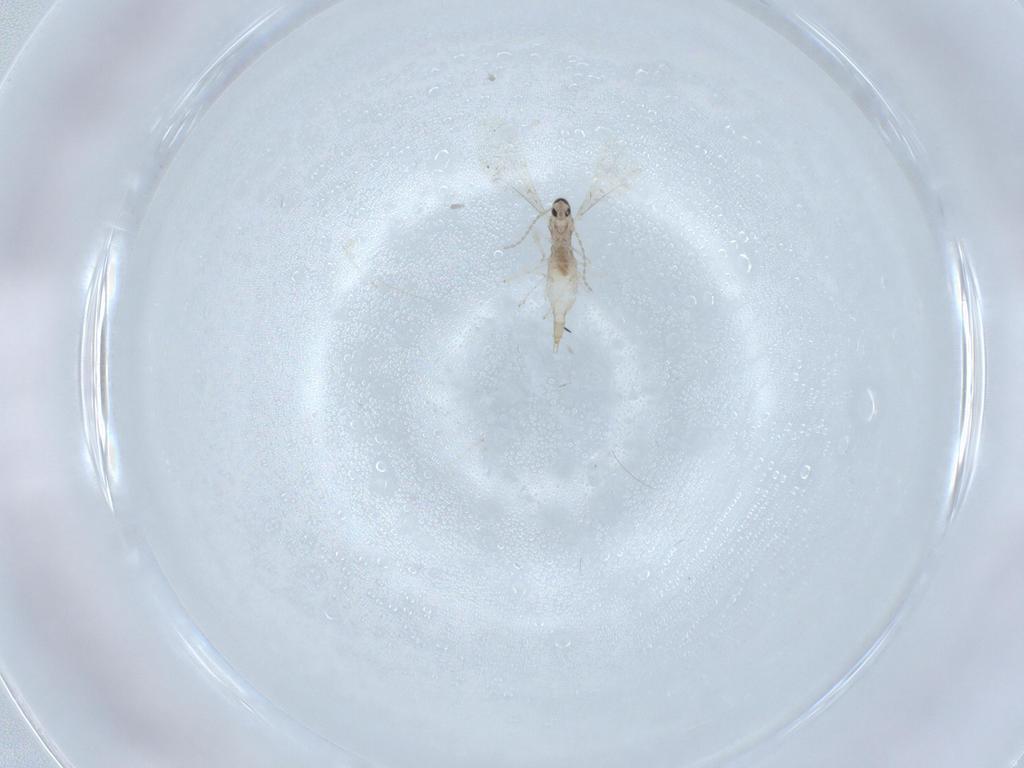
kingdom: Animalia
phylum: Arthropoda
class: Insecta
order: Diptera
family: Cecidomyiidae
